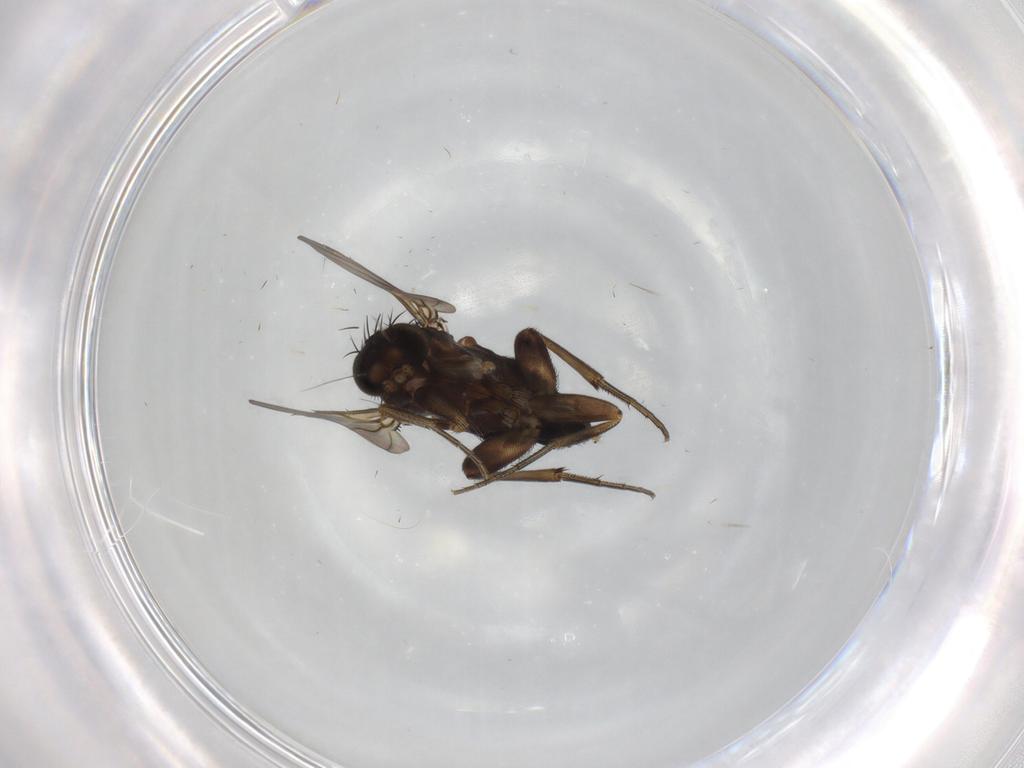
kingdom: Animalia
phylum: Arthropoda
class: Insecta
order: Diptera
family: Phoridae
